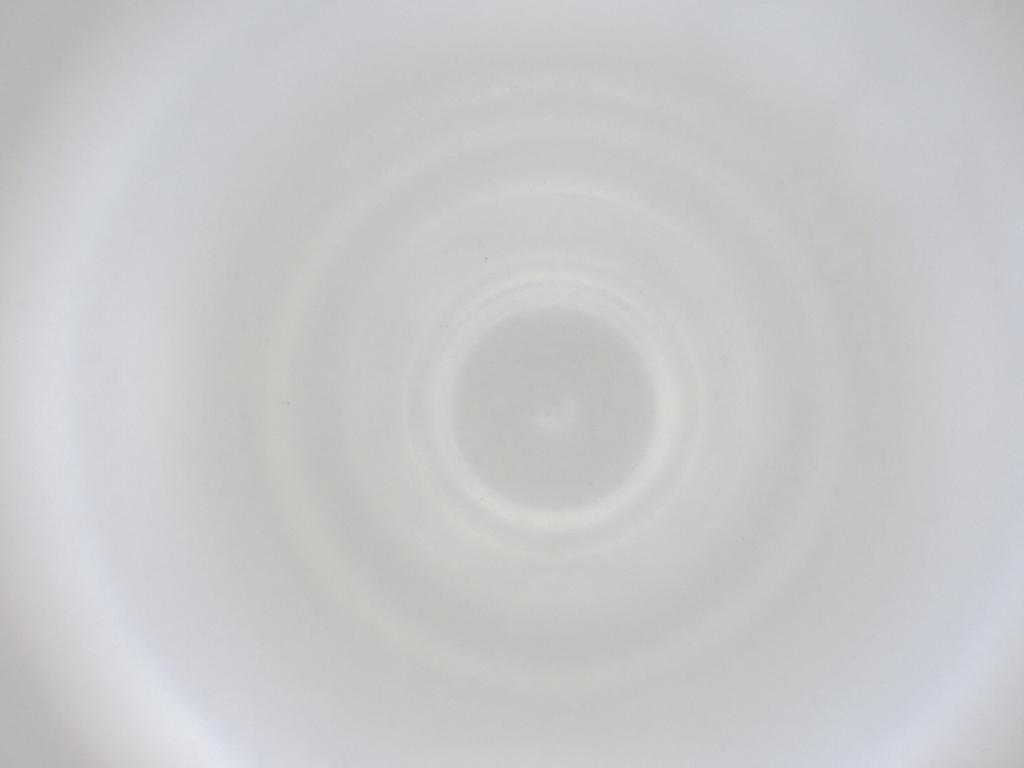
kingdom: Animalia
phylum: Arthropoda
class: Insecta
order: Diptera
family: Cecidomyiidae
